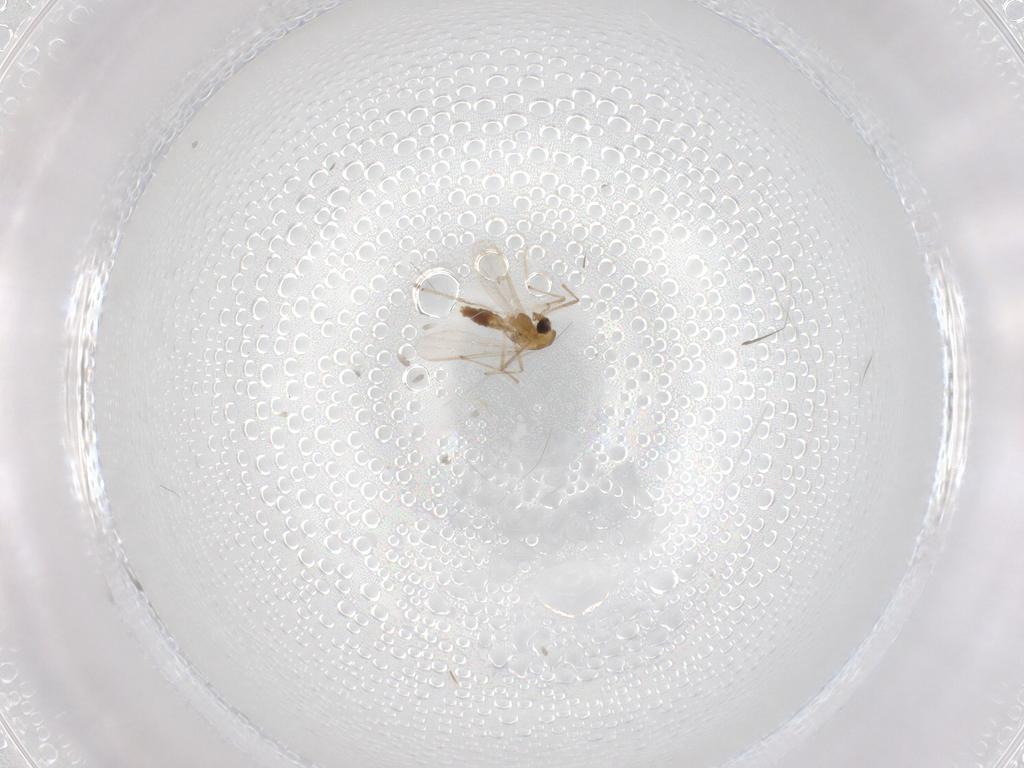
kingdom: Animalia
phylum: Arthropoda
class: Insecta
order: Diptera
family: Chironomidae
